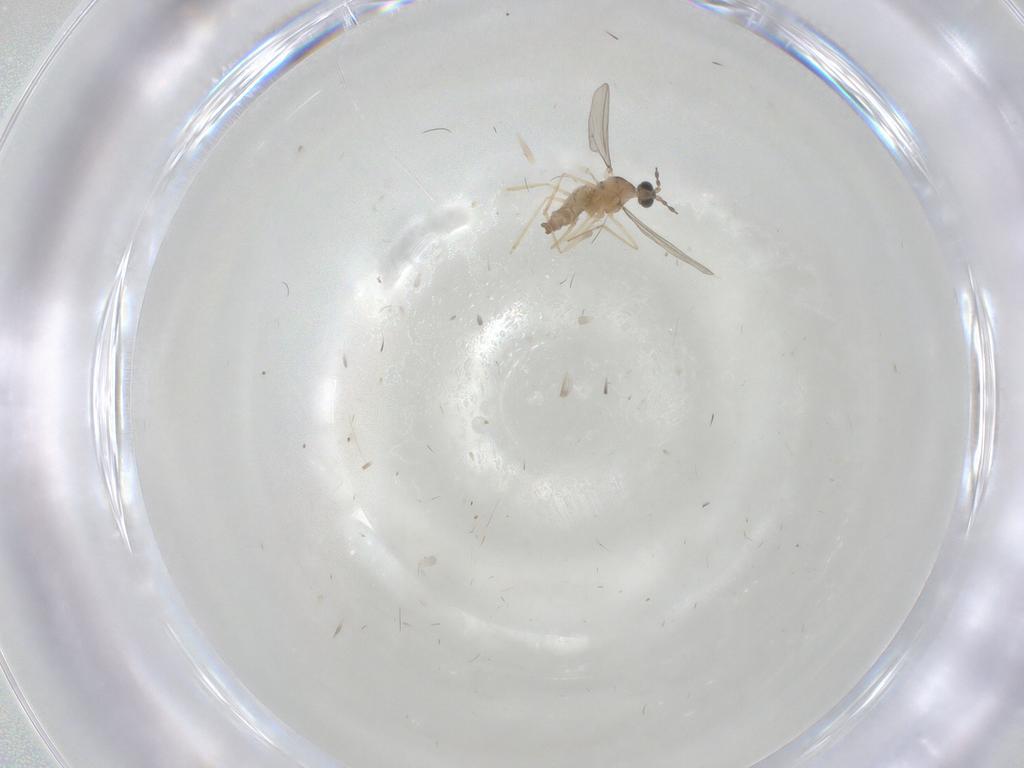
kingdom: Animalia
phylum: Arthropoda
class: Insecta
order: Diptera
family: Cecidomyiidae
